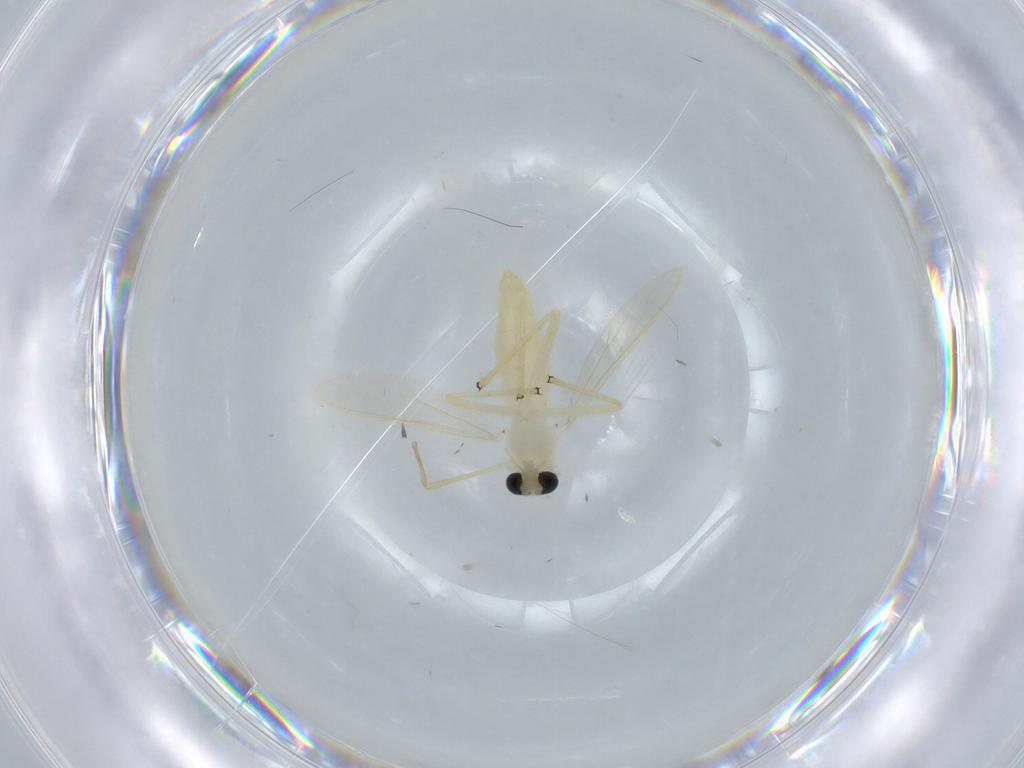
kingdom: Animalia
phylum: Arthropoda
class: Insecta
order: Diptera
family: Chironomidae
